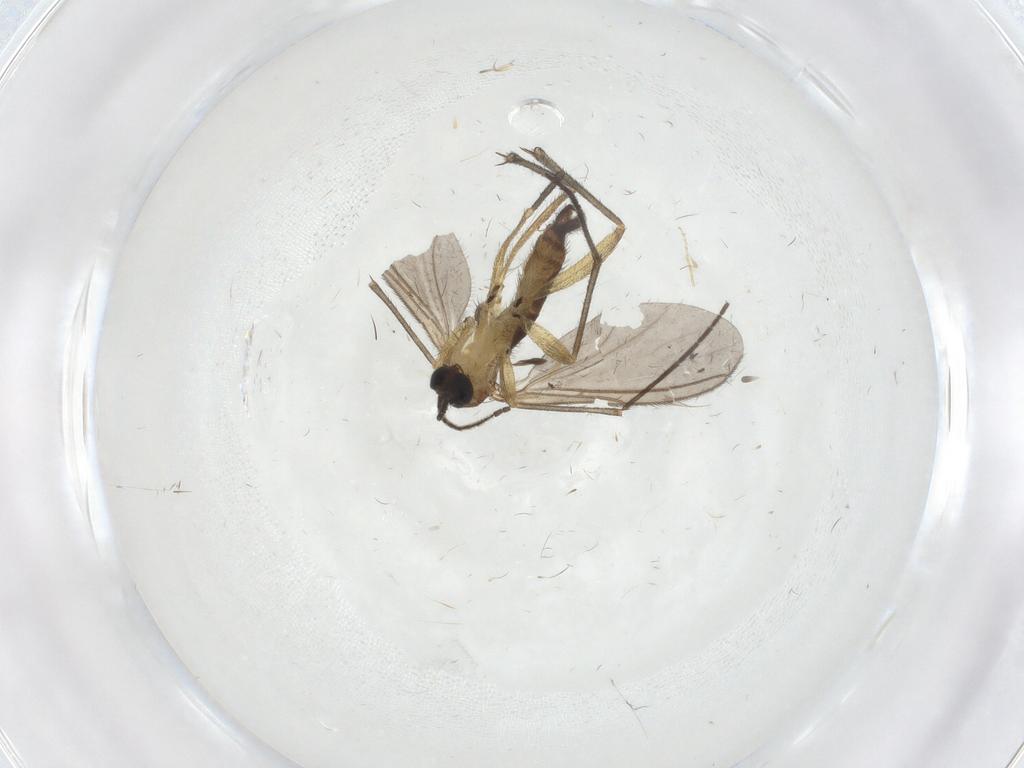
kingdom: Animalia
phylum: Arthropoda
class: Insecta
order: Diptera
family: Sciaridae
